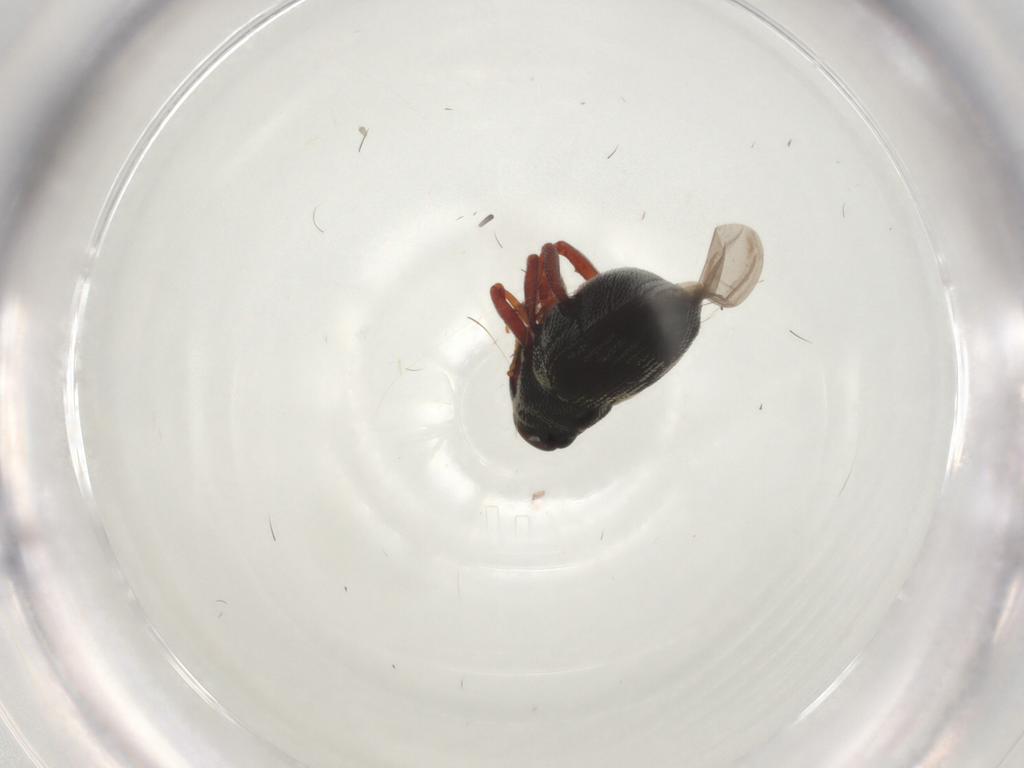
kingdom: Animalia
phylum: Arthropoda
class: Insecta
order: Coleoptera
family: Curculionidae
